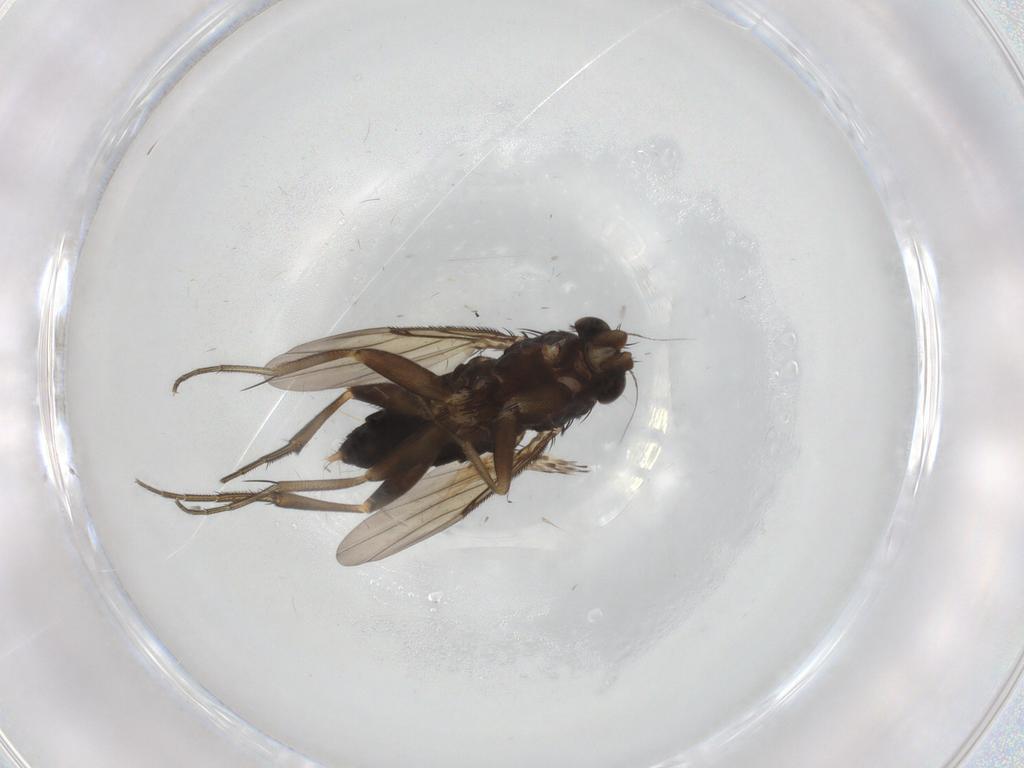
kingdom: Animalia
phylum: Arthropoda
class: Insecta
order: Diptera
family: Phoridae
